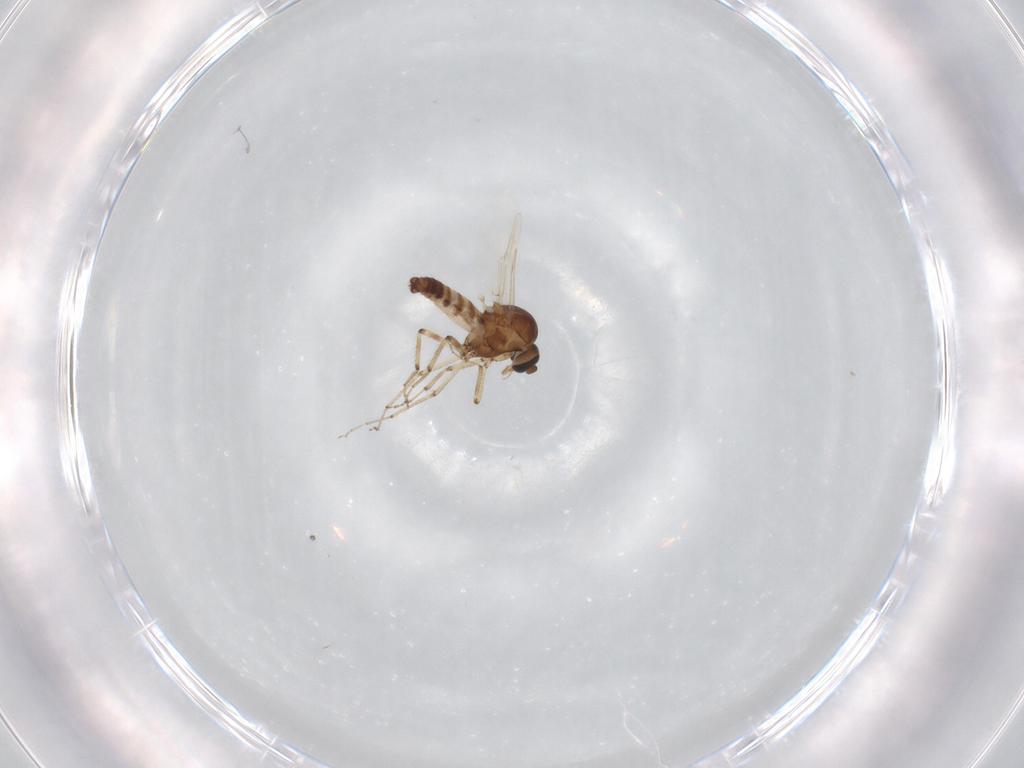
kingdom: Animalia
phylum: Arthropoda
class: Insecta
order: Diptera
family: Ceratopogonidae
